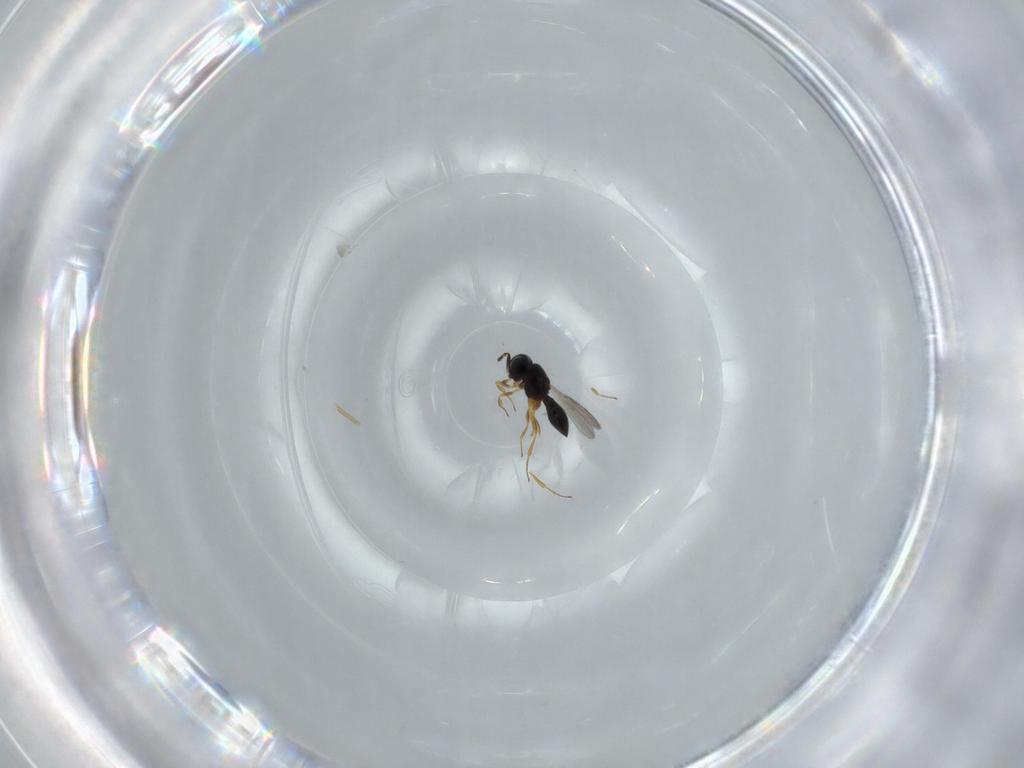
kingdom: Animalia
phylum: Arthropoda
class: Insecta
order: Hymenoptera
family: Scelionidae
